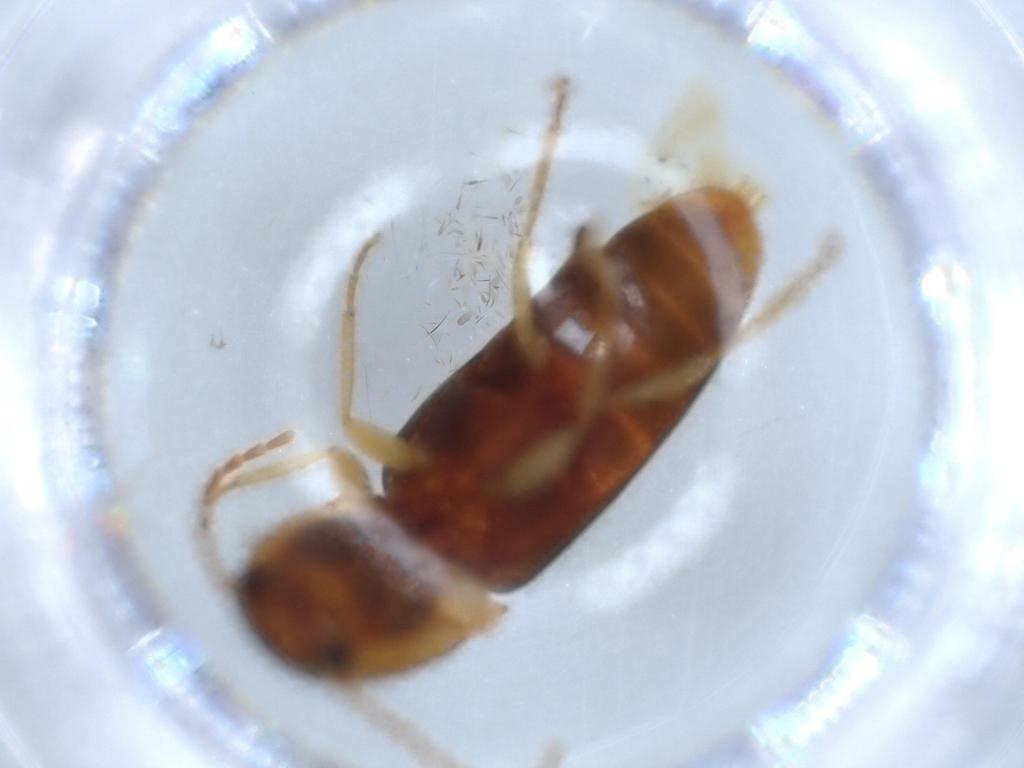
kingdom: Animalia
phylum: Arthropoda
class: Insecta
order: Coleoptera
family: Elateridae
